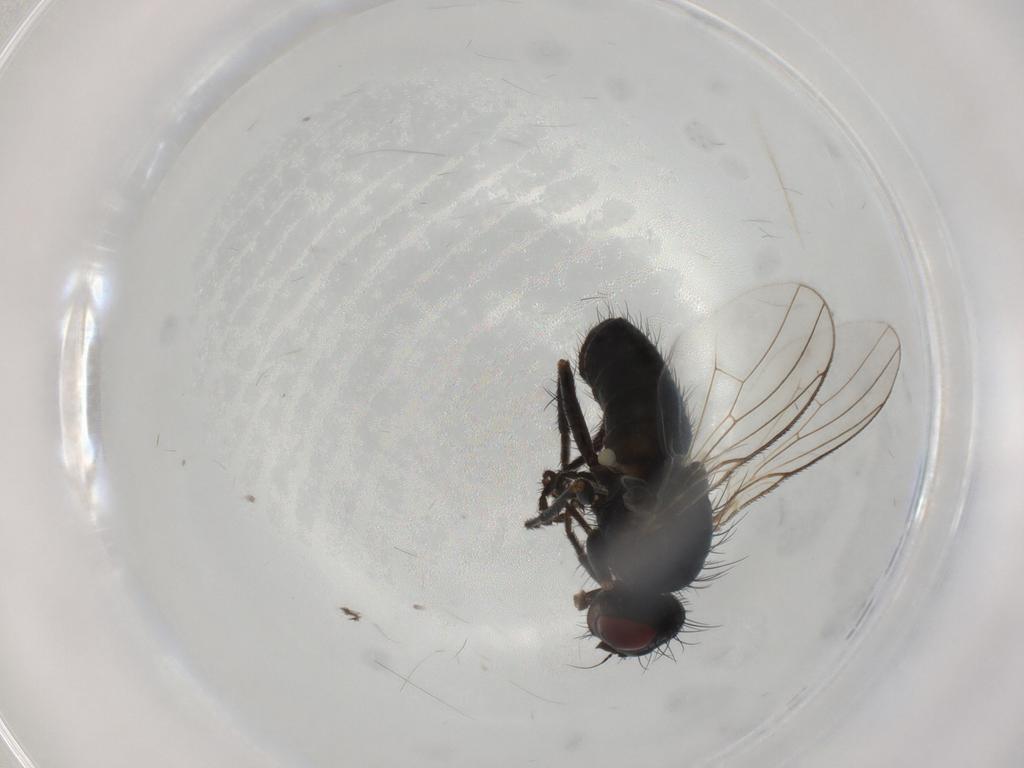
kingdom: Animalia
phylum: Arthropoda
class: Insecta
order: Diptera
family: Muscidae
